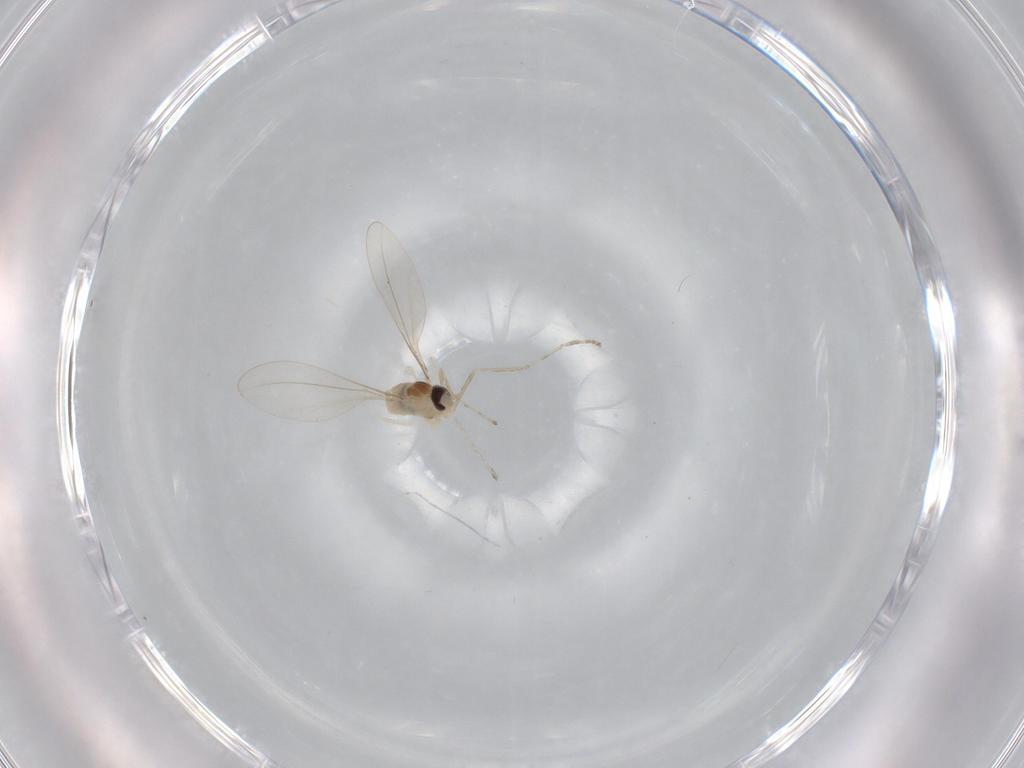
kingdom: Animalia
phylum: Arthropoda
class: Insecta
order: Diptera
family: Cecidomyiidae
